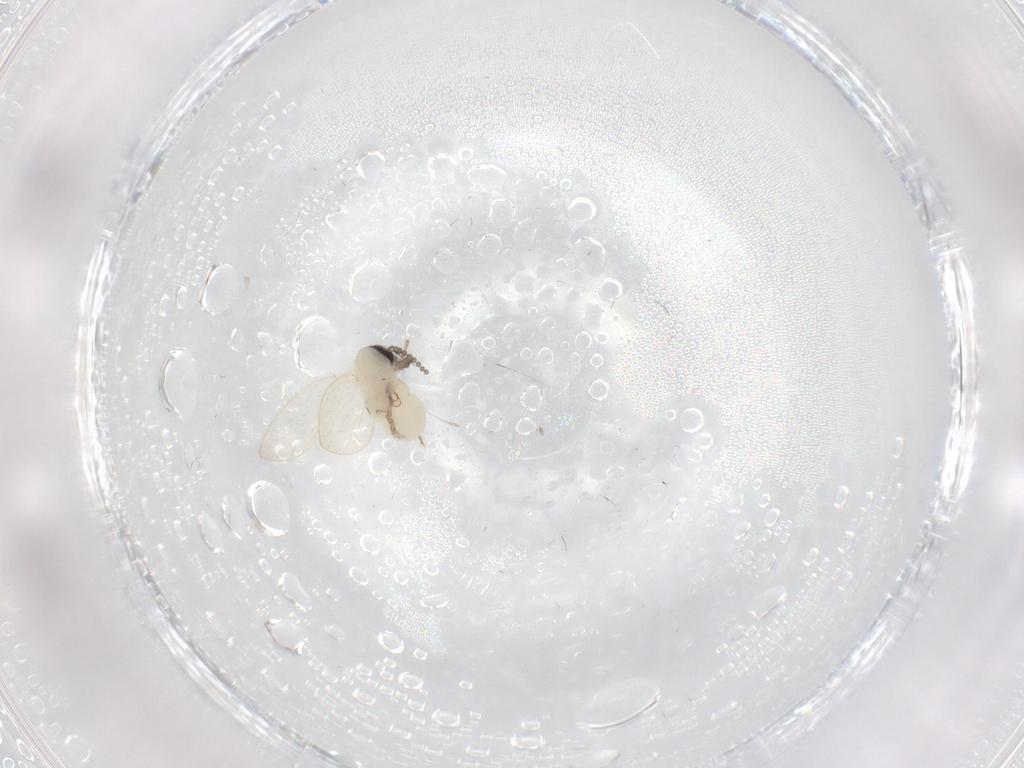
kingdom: Animalia
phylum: Arthropoda
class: Insecta
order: Diptera
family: Psychodidae
